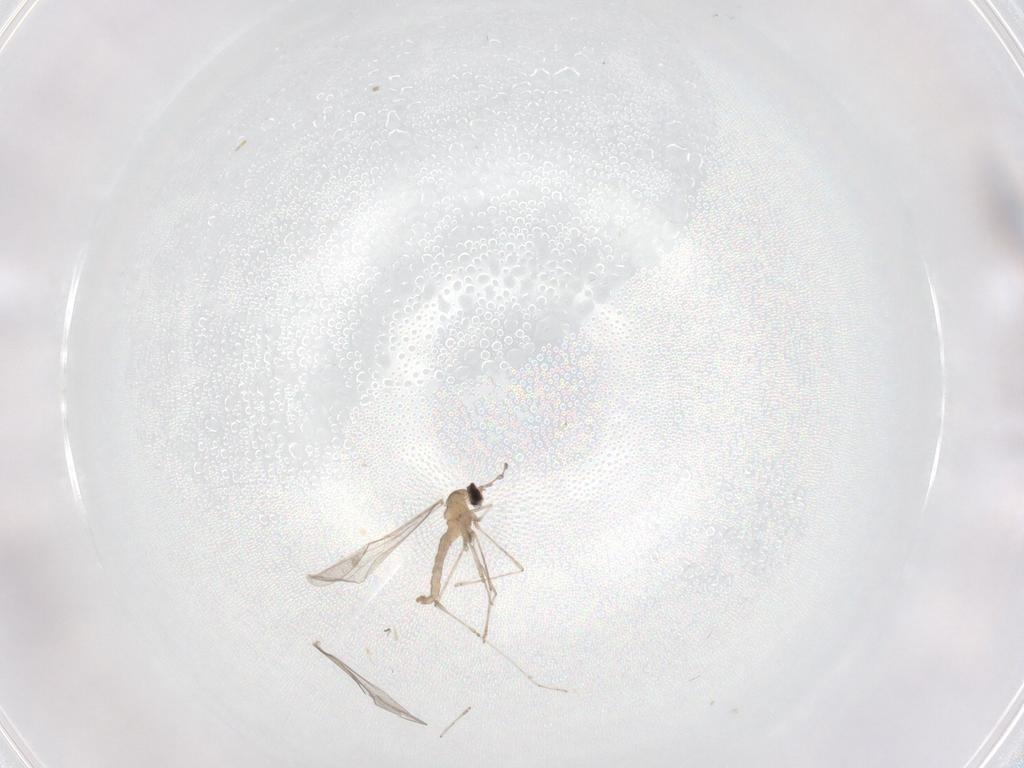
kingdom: Animalia
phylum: Arthropoda
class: Insecta
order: Diptera
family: Cecidomyiidae
